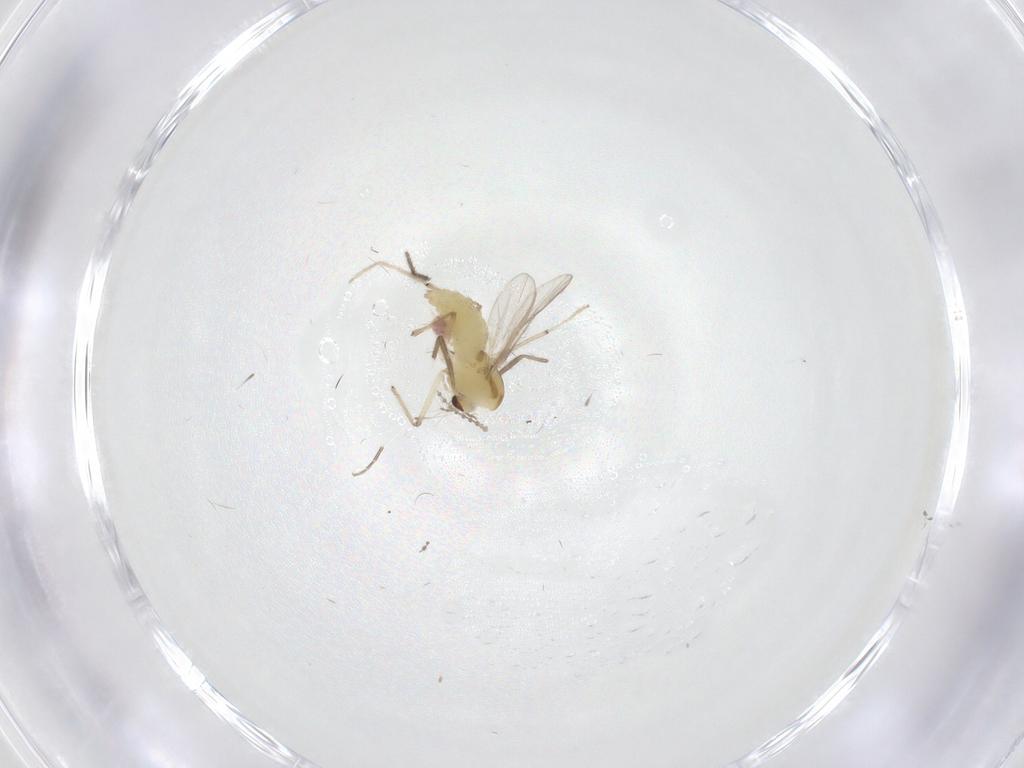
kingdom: Animalia
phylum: Arthropoda
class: Insecta
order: Diptera
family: Chironomidae
